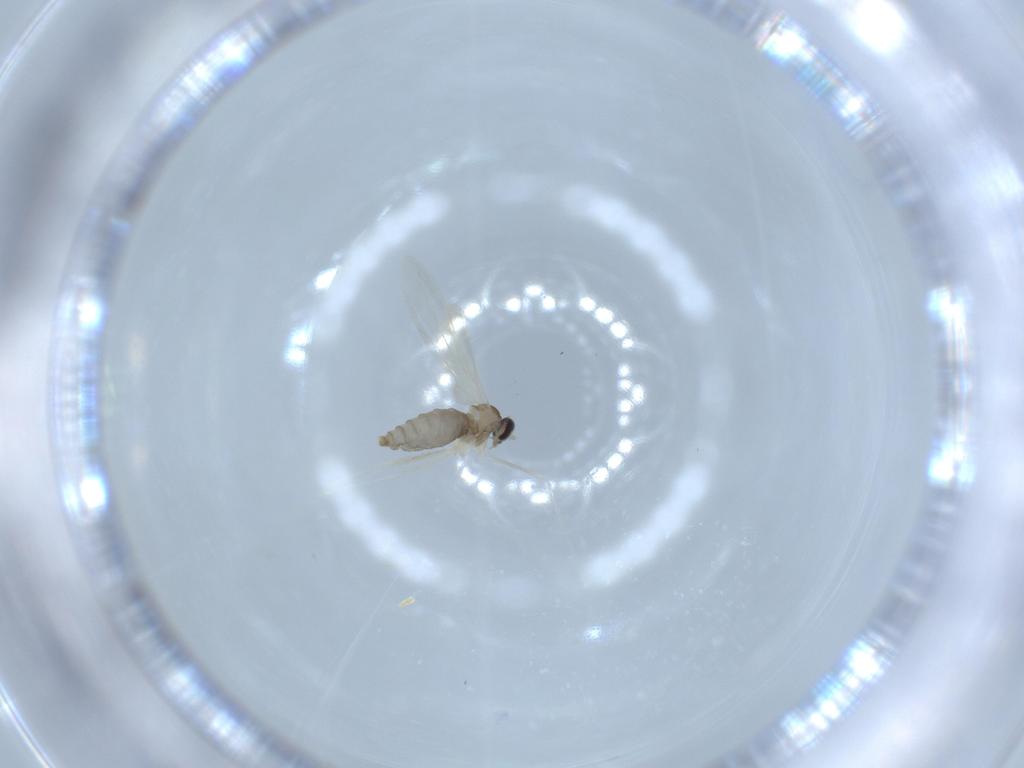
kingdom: Animalia
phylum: Arthropoda
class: Insecta
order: Diptera
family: Cecidomyiidae
